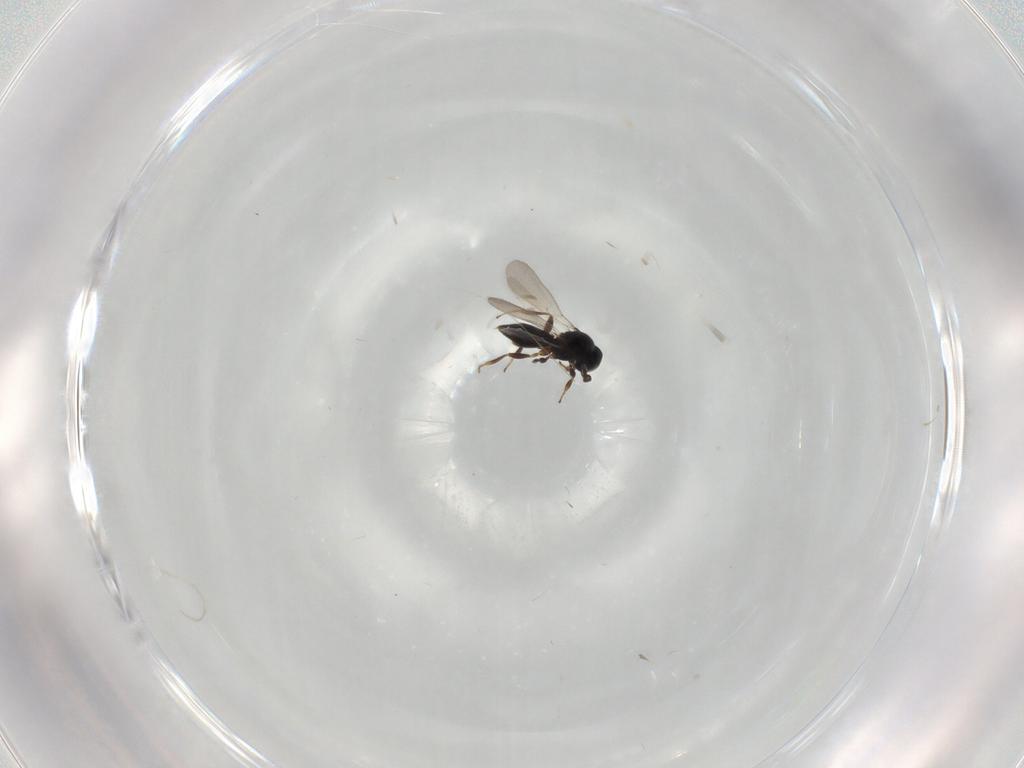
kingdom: Animalia
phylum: Arthropoda
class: Insecta
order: Hymenoptera
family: Platygastridae
